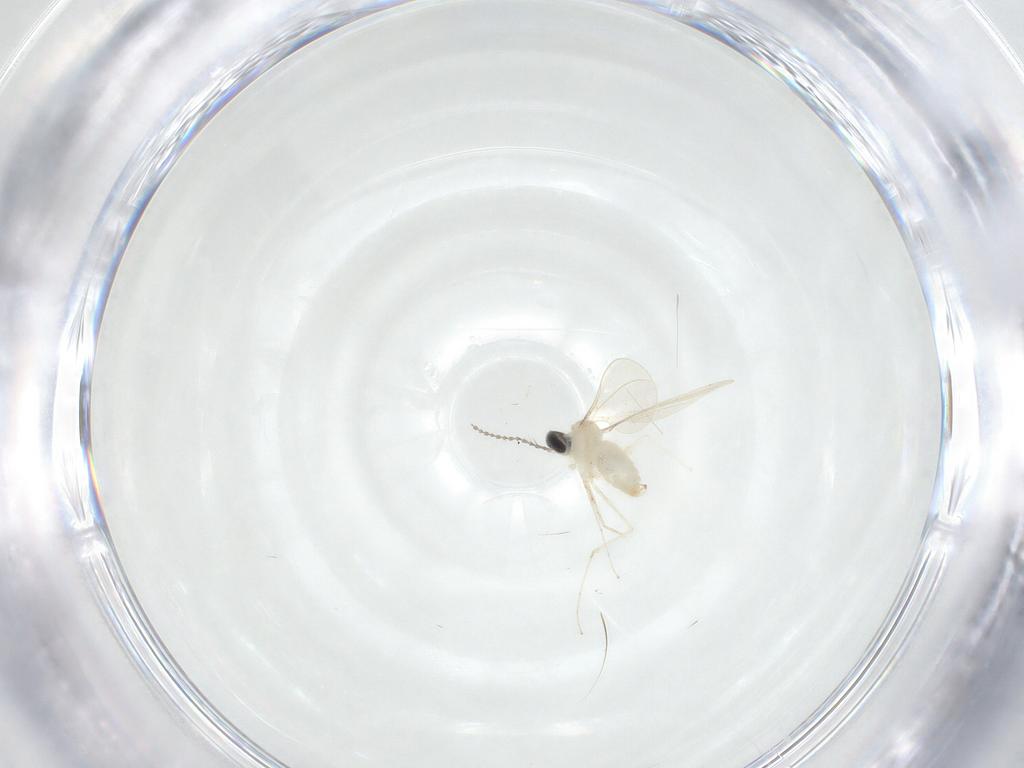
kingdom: Animalia
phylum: Arthropoda
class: Insecta
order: Diptera
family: Cecidomyiidae
